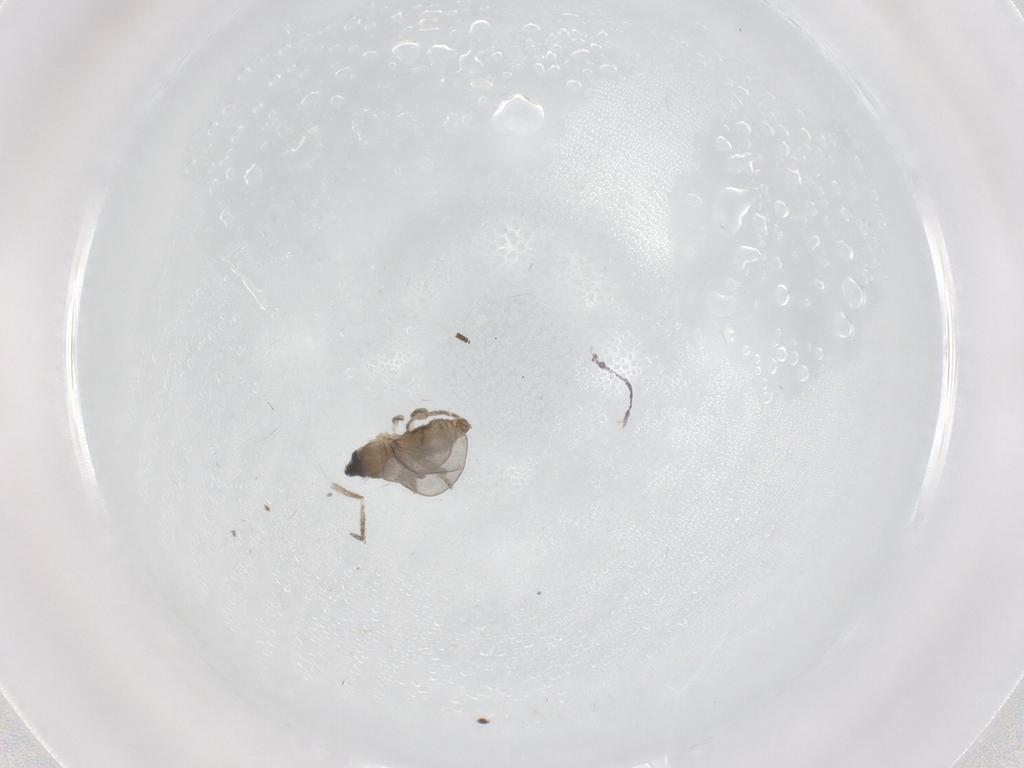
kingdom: Animalia
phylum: Arthropoda
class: Insecta
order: Diptera
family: Cecidomyiidae
